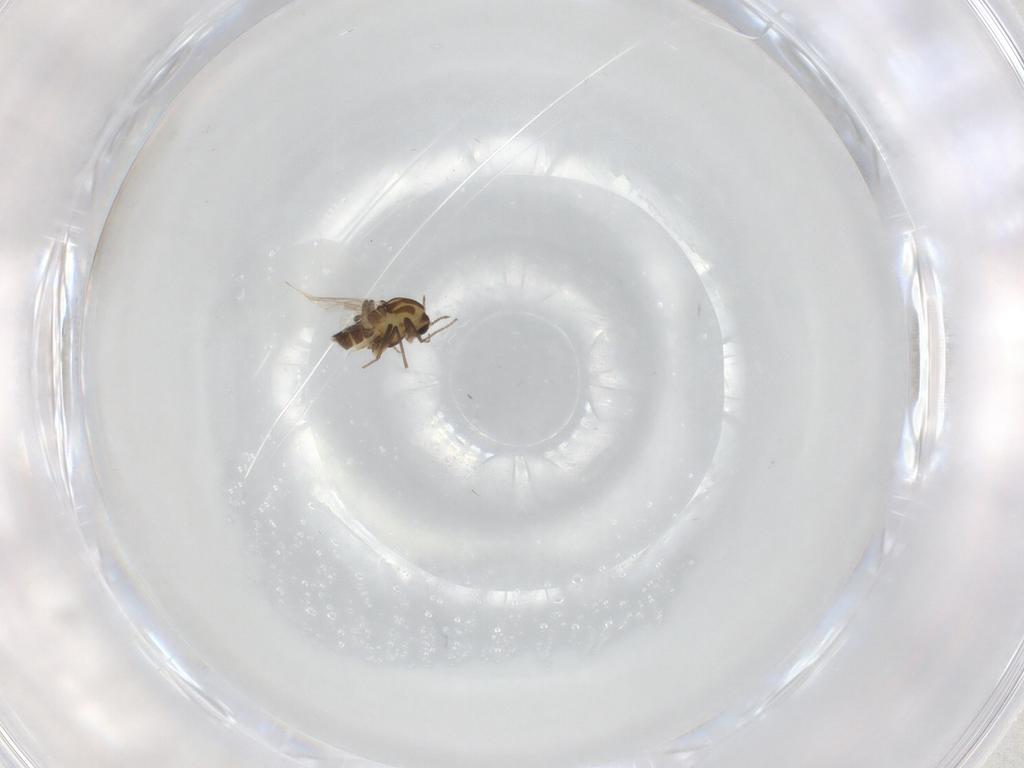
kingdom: Animalia
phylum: Arthropoda
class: Insecta
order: Diptera
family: Chironomidae
